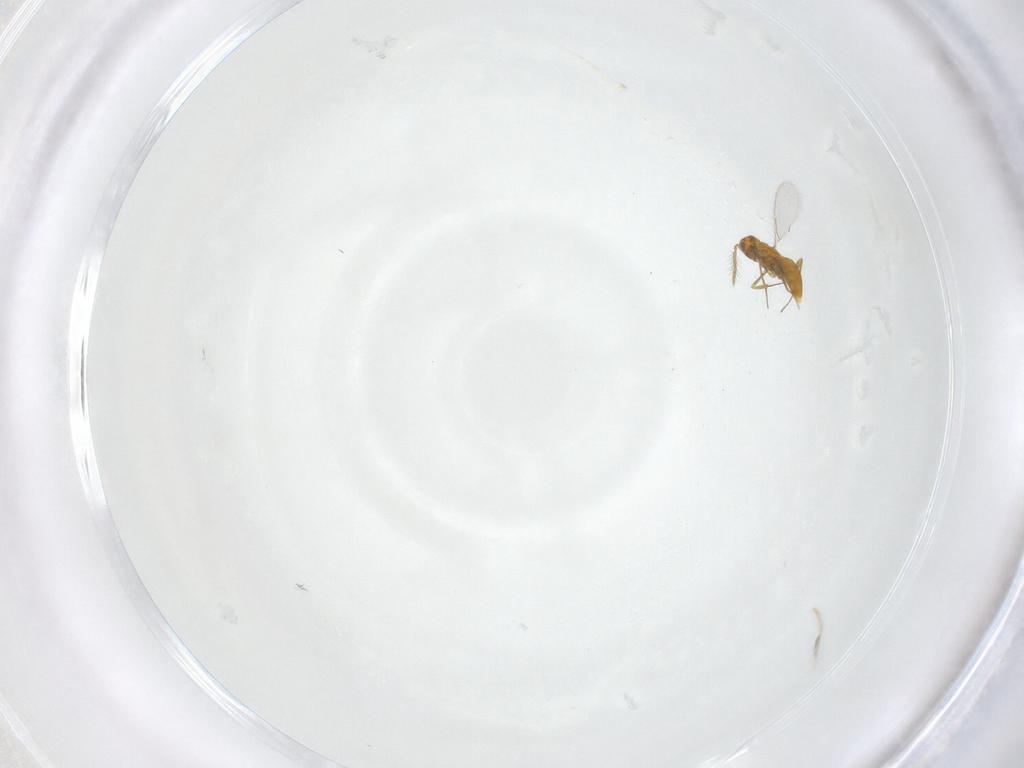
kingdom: Animalia
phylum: Arthropoda
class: Insecta
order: Hymenoptera
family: Aphelinidae
